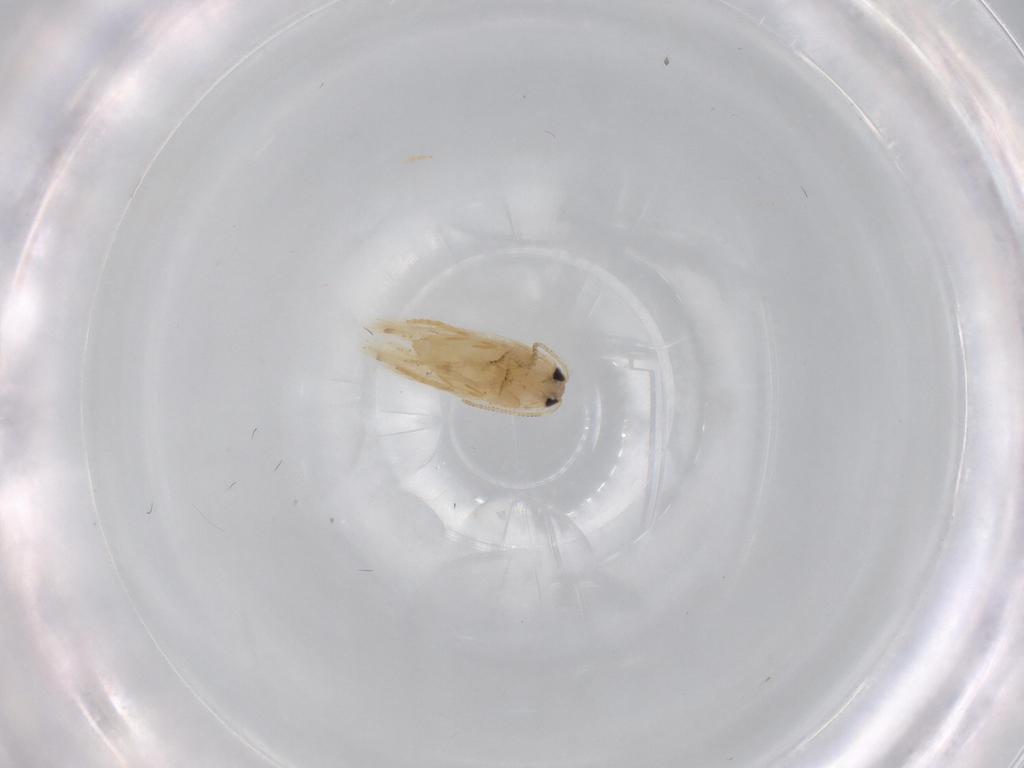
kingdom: Animalia
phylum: Arthropoda
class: Insecta
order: Lepidoptera
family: Nepticulidae
